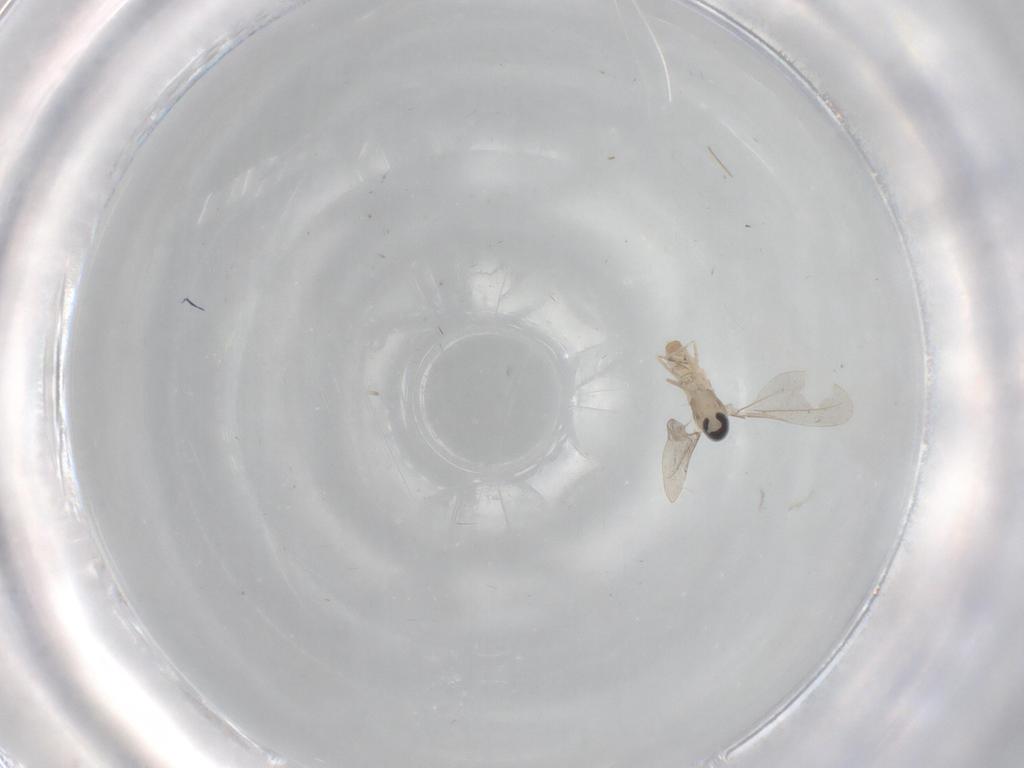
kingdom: Animalia
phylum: Arthropoda
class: Insecta
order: Diptera
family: Cecidomyiidae
